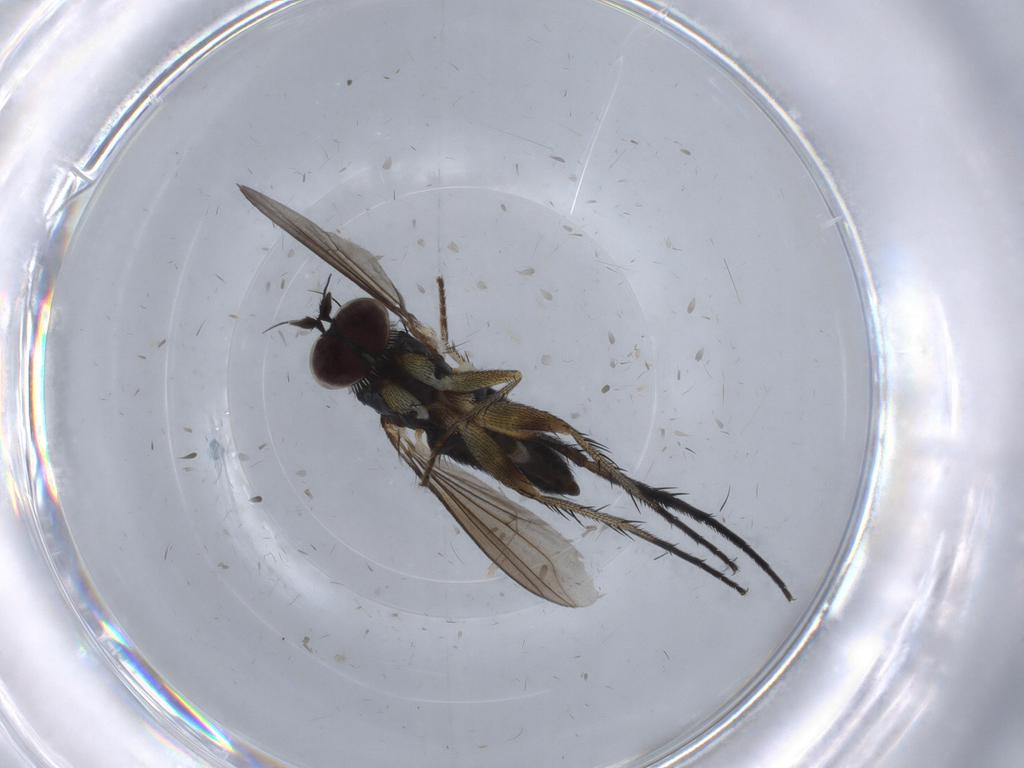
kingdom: Animalia
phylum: Arthropoda
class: Insecta
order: Diptera
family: Dolichopodidae
